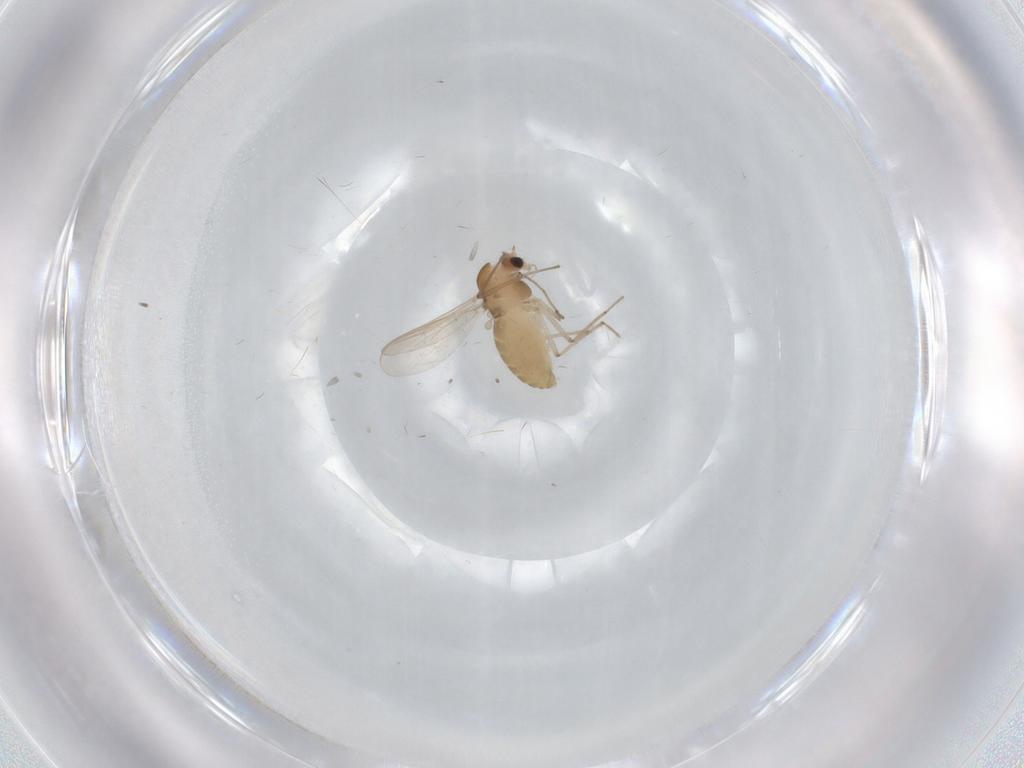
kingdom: Animalia
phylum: Arthropoda
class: Insecta
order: Diptera
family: Chironomidae
